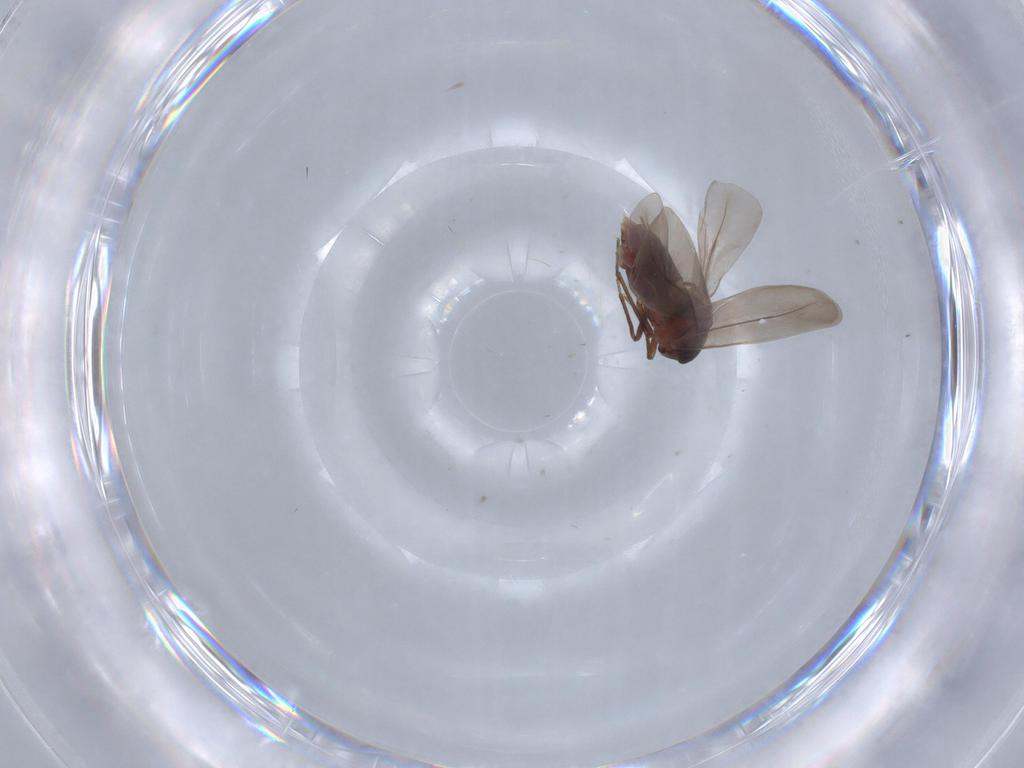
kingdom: Animalia
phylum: Arthropoda
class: Insecta
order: Hemiptera
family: Aleyrodidae
